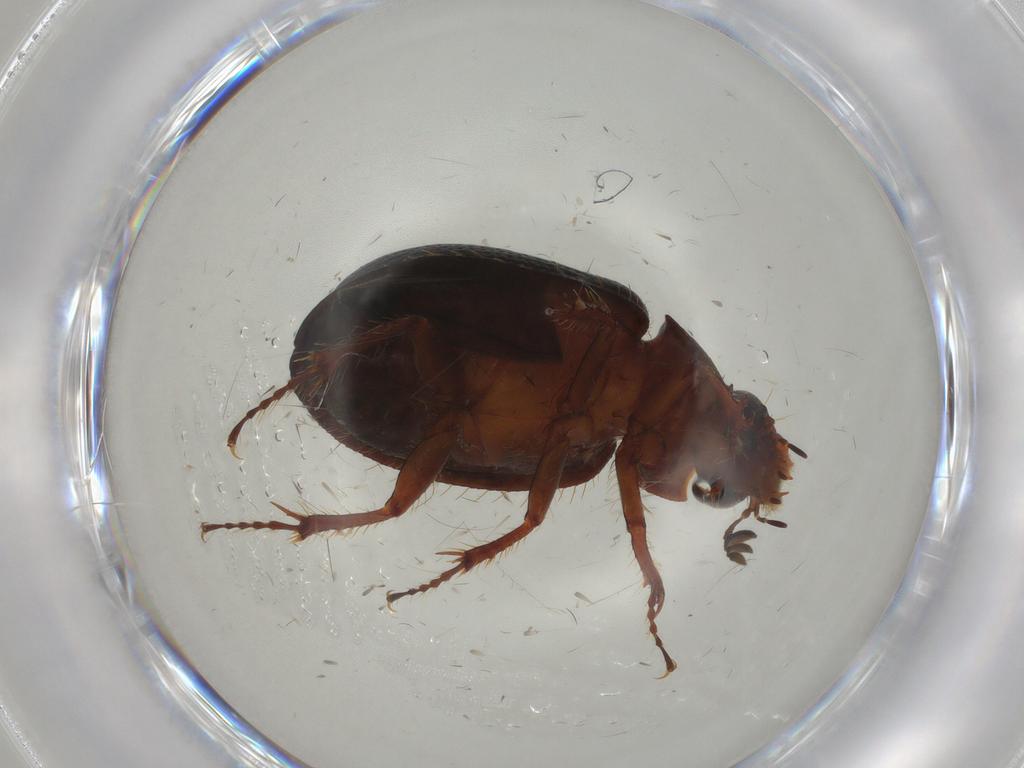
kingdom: Animalia
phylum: Arthropoda
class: Insecta
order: Coleoptera
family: Hybosoridae
